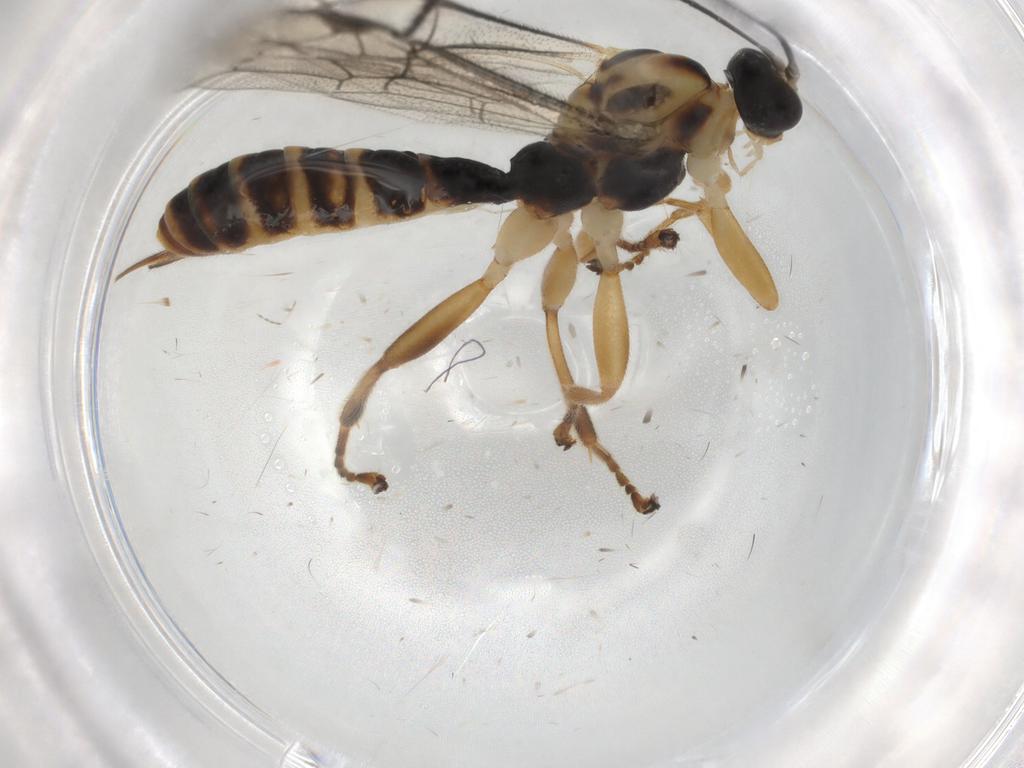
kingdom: Animalia
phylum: Arthropoda
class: Insecta
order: Hymenoptera
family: Ichneumonidae
